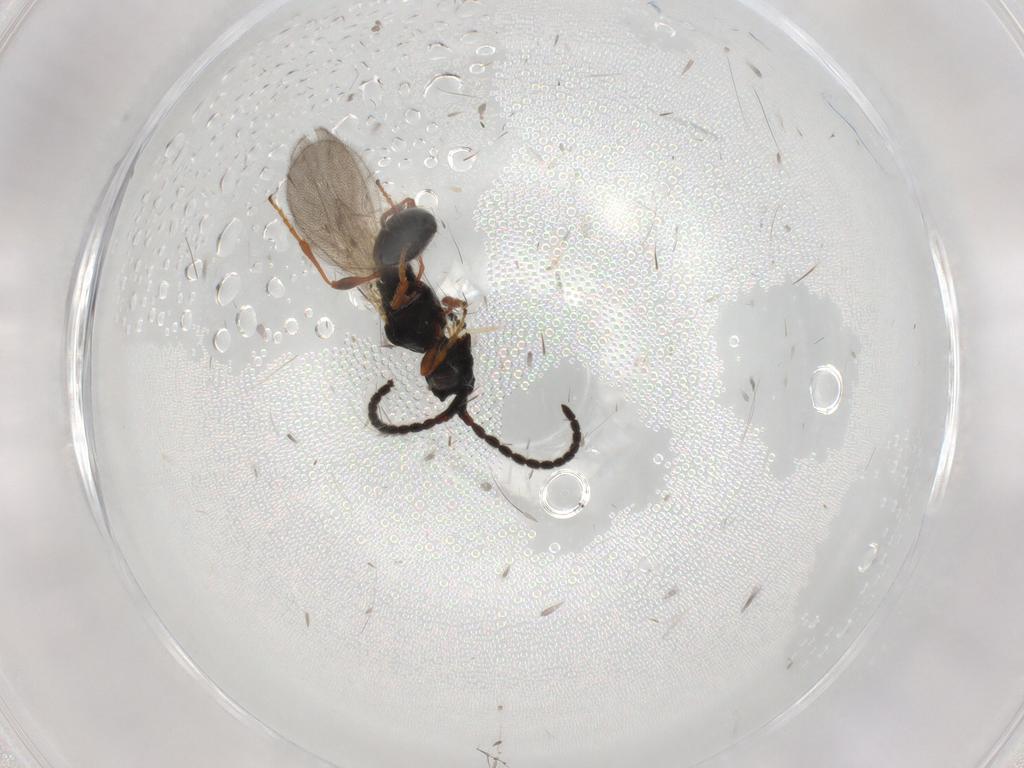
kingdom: Animalia
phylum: Arthropoda
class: Insecta
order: Hymenoptera
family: Diapriidae
